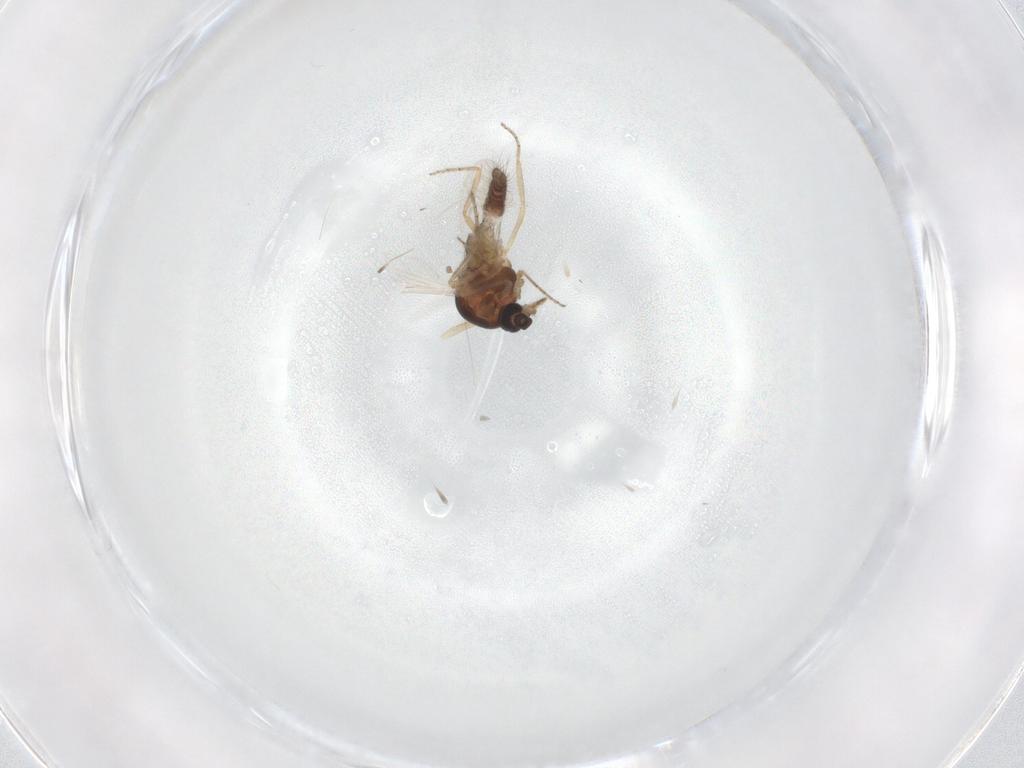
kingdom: Animalia
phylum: Arthropoda
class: Insecta
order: Diptera
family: Ceratopogonidae
